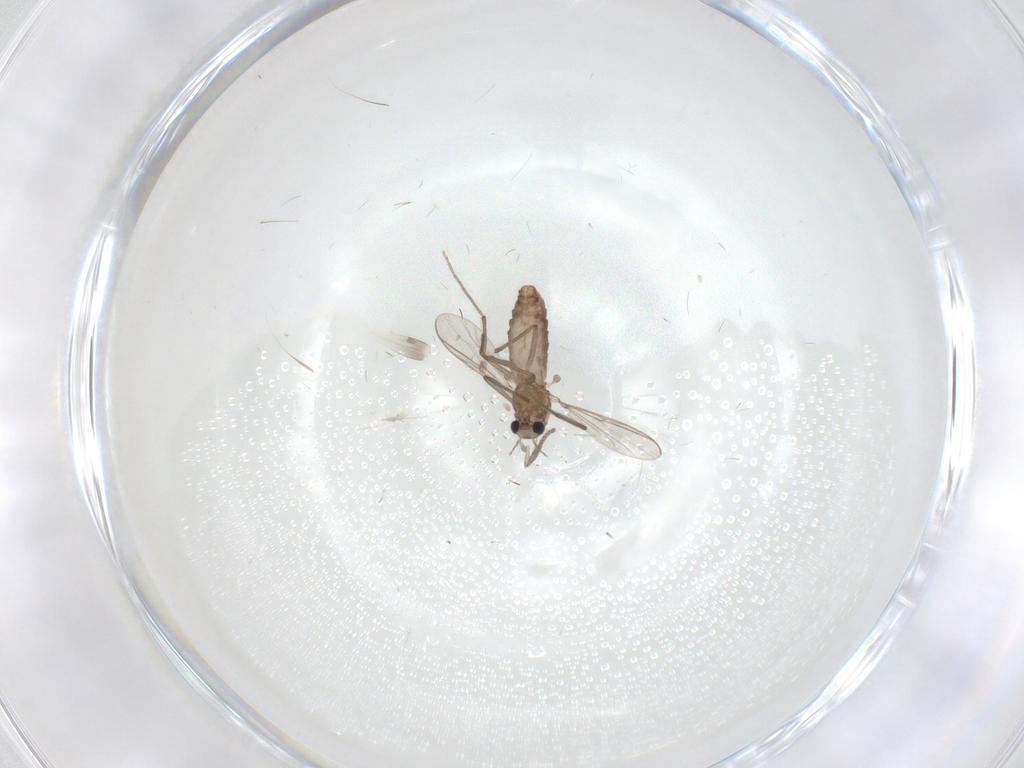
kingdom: Animalia
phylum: Arthropoda
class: Insecta
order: Diptera
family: Chironomidae
